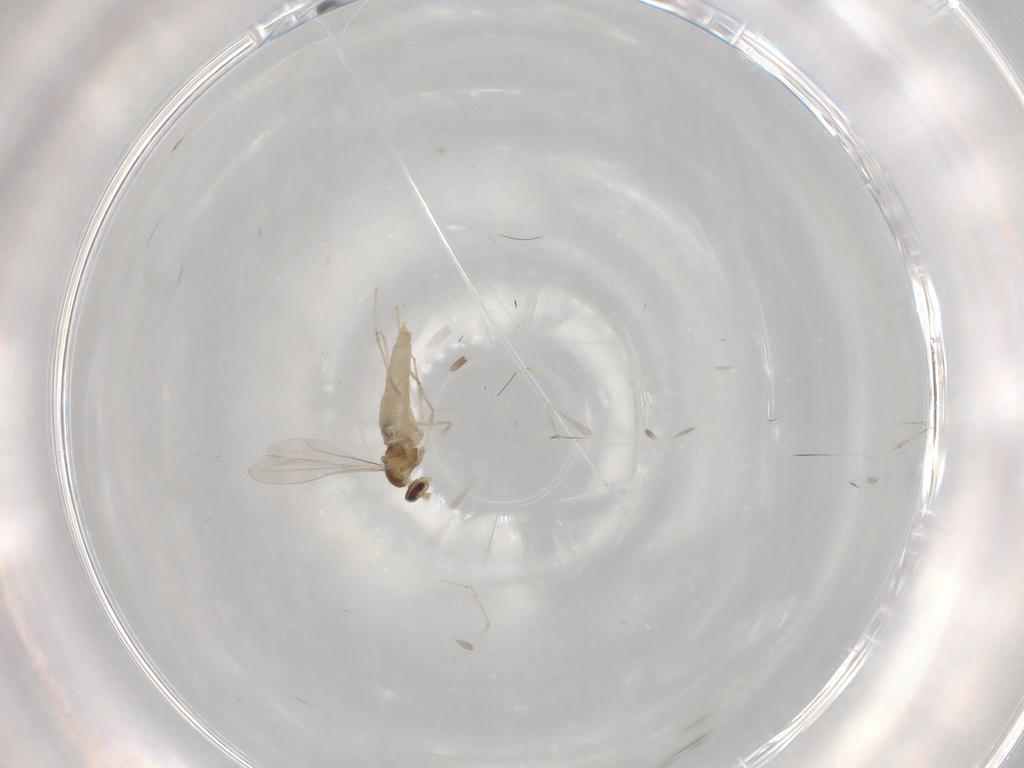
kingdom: Animalia
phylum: Arthropoda
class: Insecta
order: Diptera
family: Cecidomyiidae
